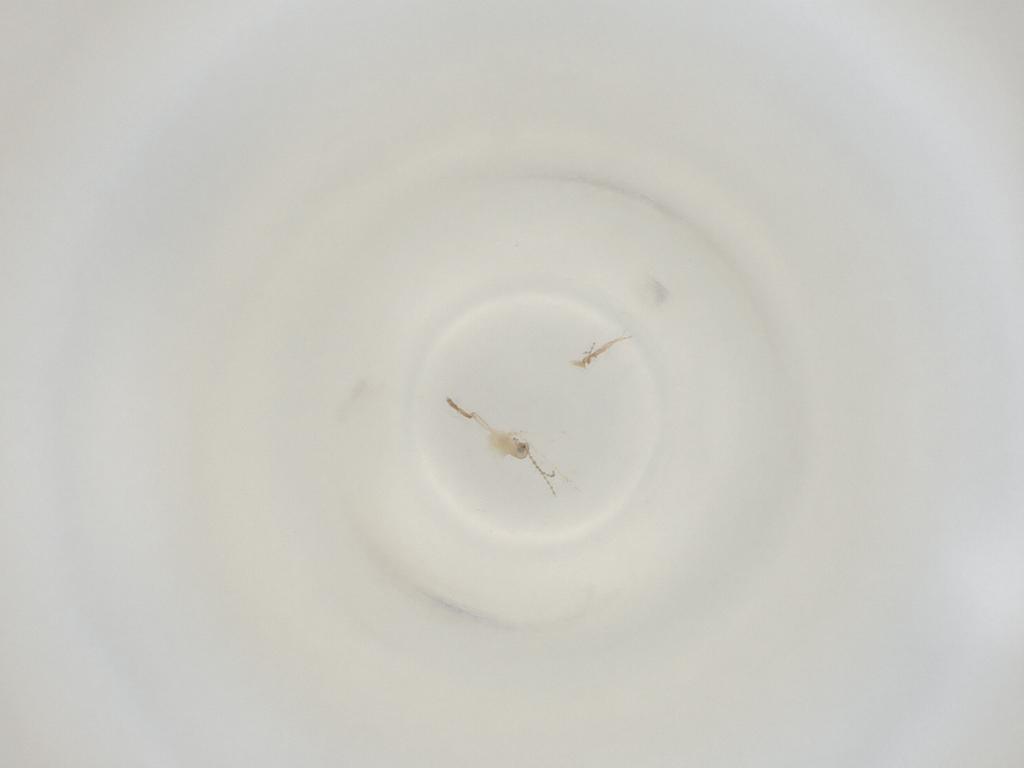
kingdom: Animalia
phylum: Arthropoda
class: Insecta
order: Diptera
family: Cecidomyiidae
